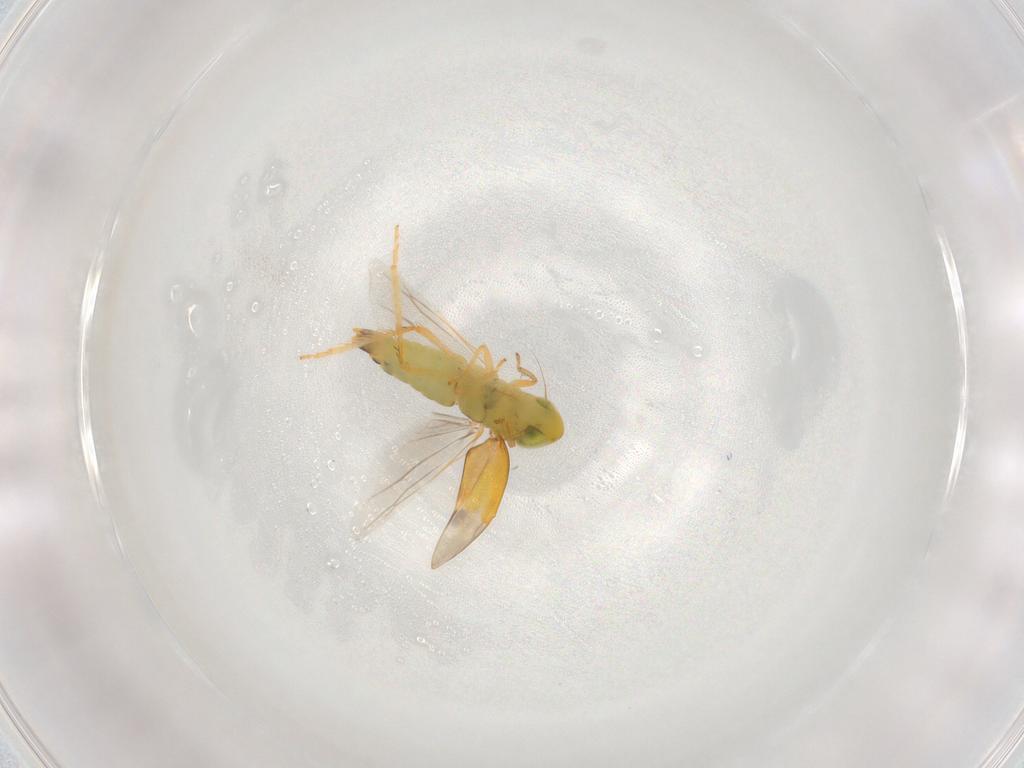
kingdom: Animalia
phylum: Arthropoda
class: Insecta
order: Hemiptera
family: Cicadellidae
